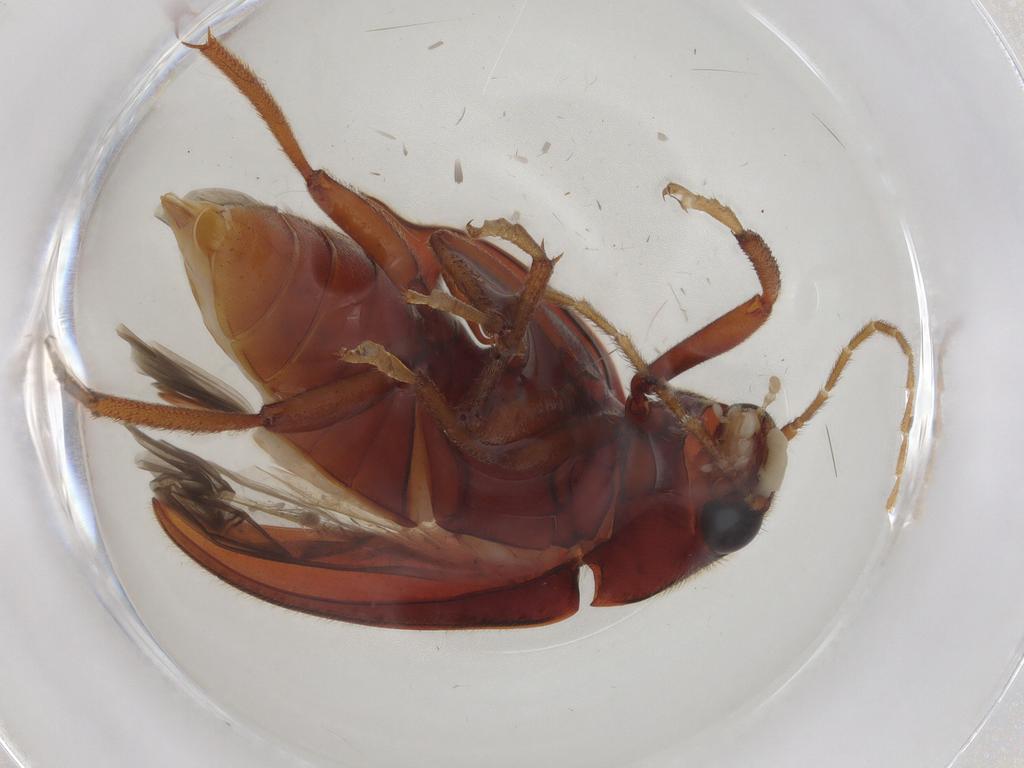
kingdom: Animalia
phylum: Arthropoda
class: Insecta
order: Coleoptera
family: Ptilodactylidae
